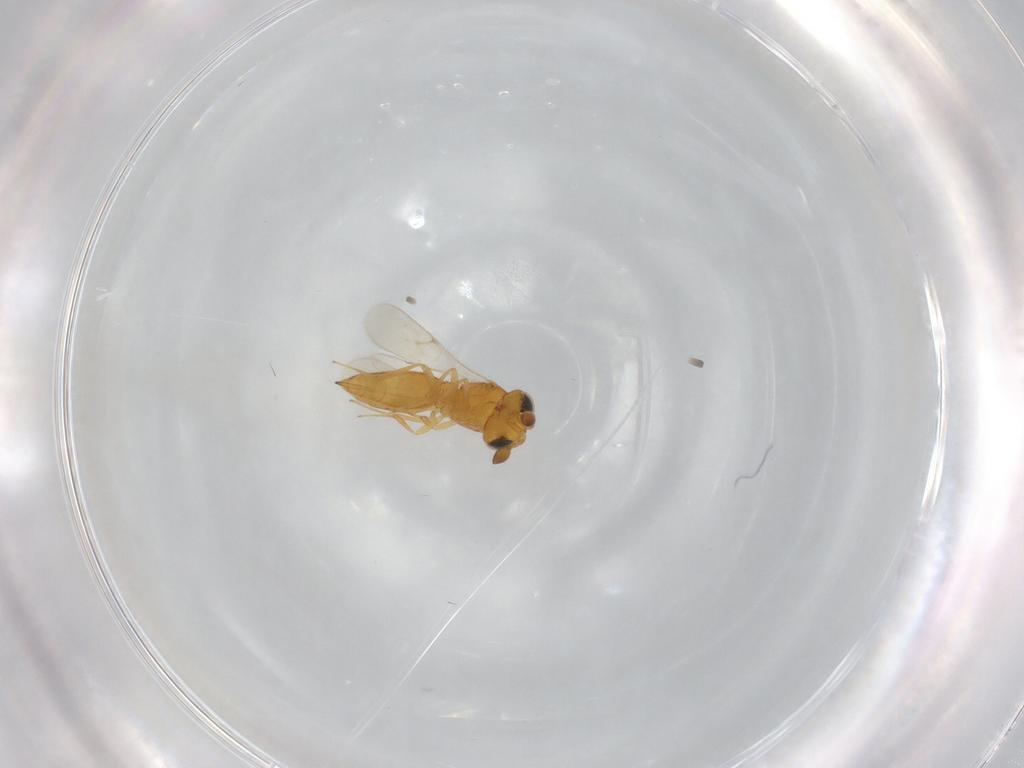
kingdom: Animalia
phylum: Arthropoda
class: Insecta
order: Hymenoptera
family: Scelionidae
